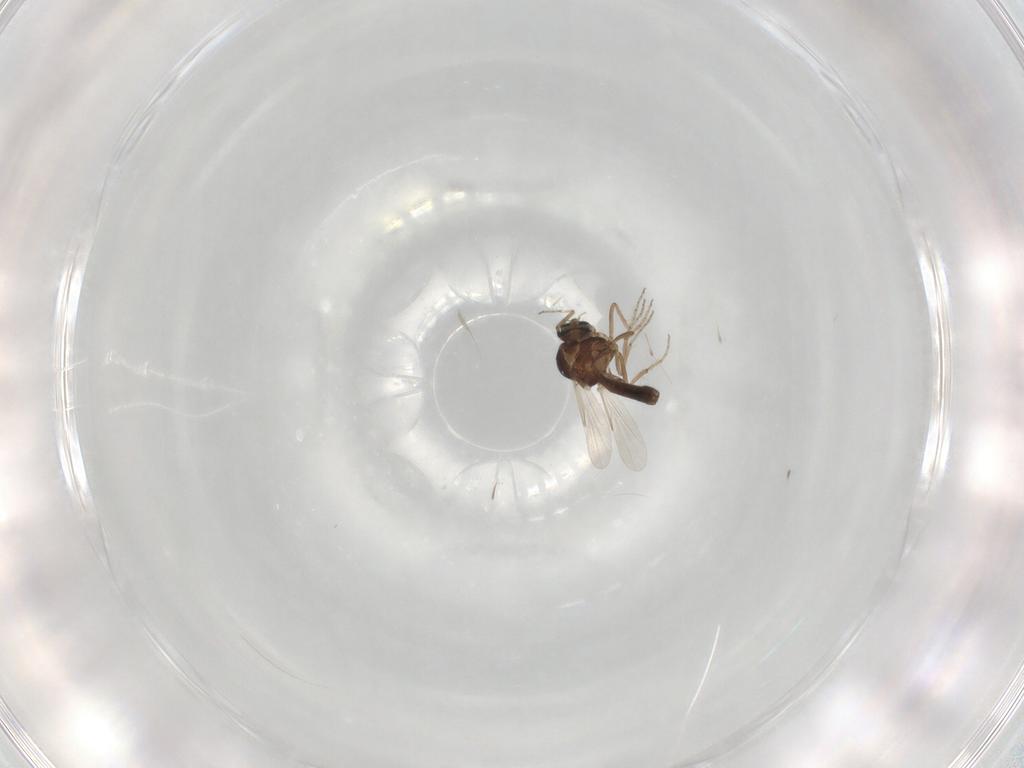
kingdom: Animalia
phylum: Arthropoda
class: Insecta
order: Diptera
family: Ceratopogonidae
